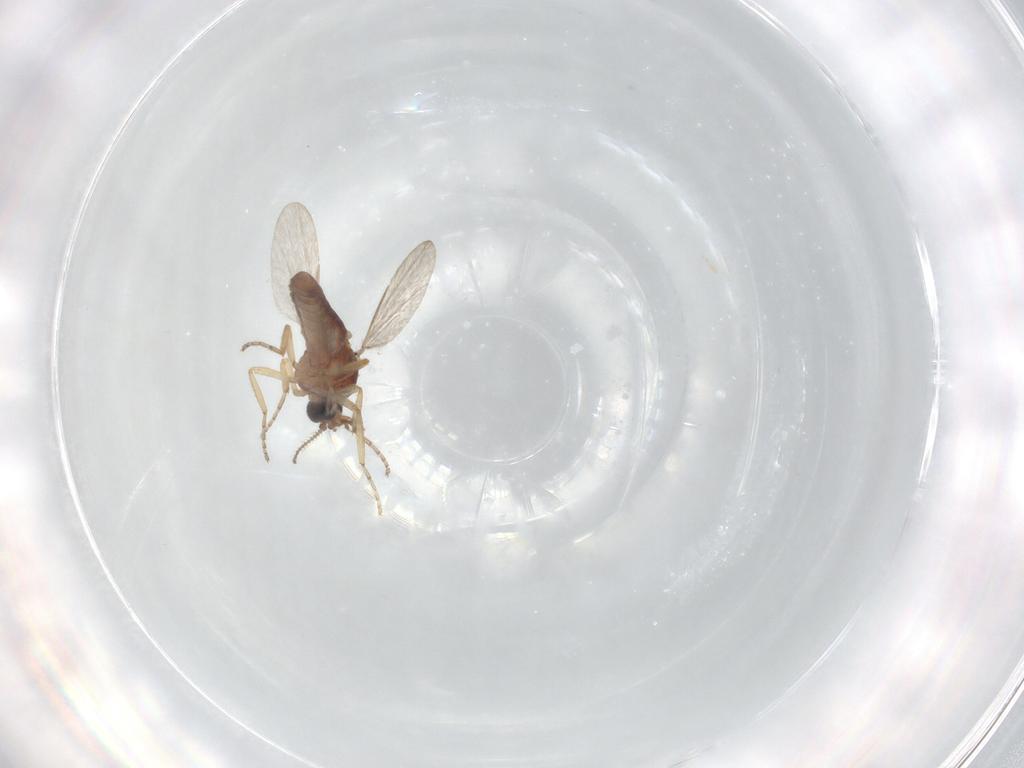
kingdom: Animalia
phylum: Arthropoda
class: Insecta
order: Diptera
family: Ceratopogonidae
